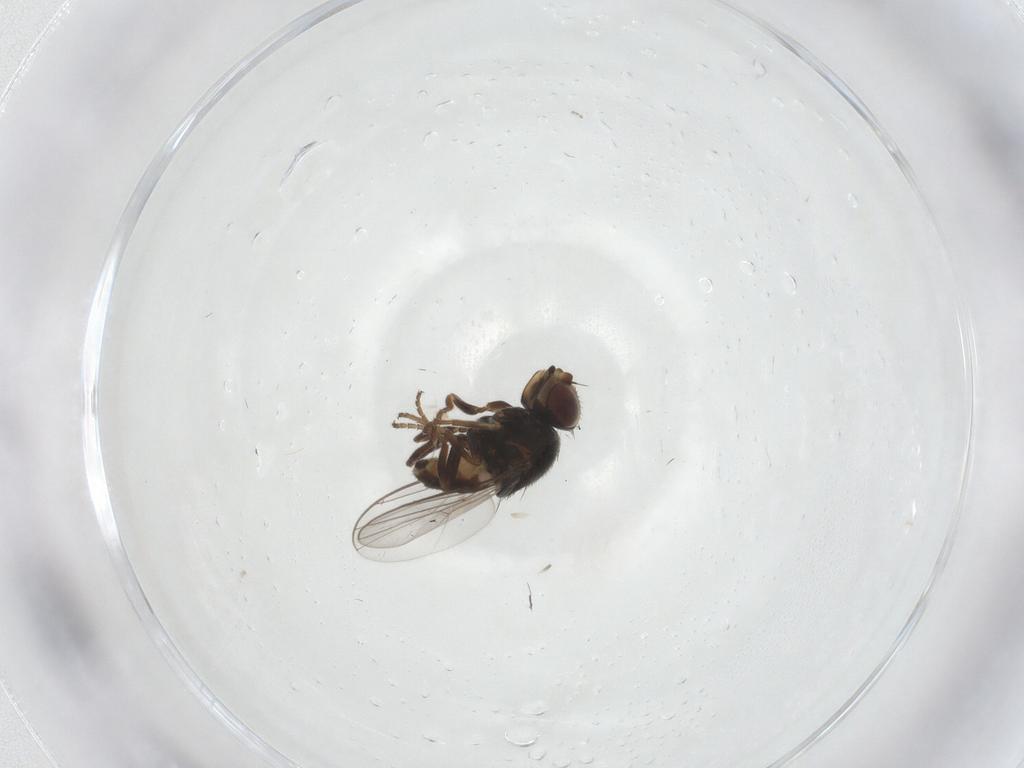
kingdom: Animalia
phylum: Arthropoda
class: Insecta
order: Diptera
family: Chloropidae
